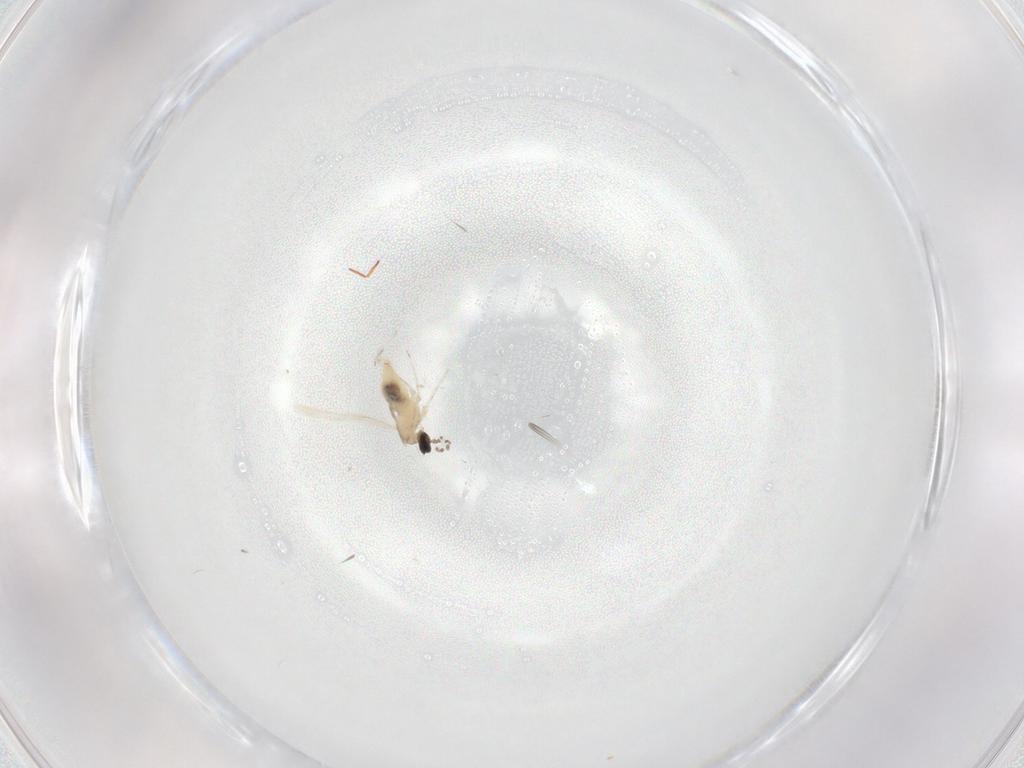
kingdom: Animalia
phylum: Arthropoda
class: Insecta
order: Diptera
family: Cecidomyiidae
